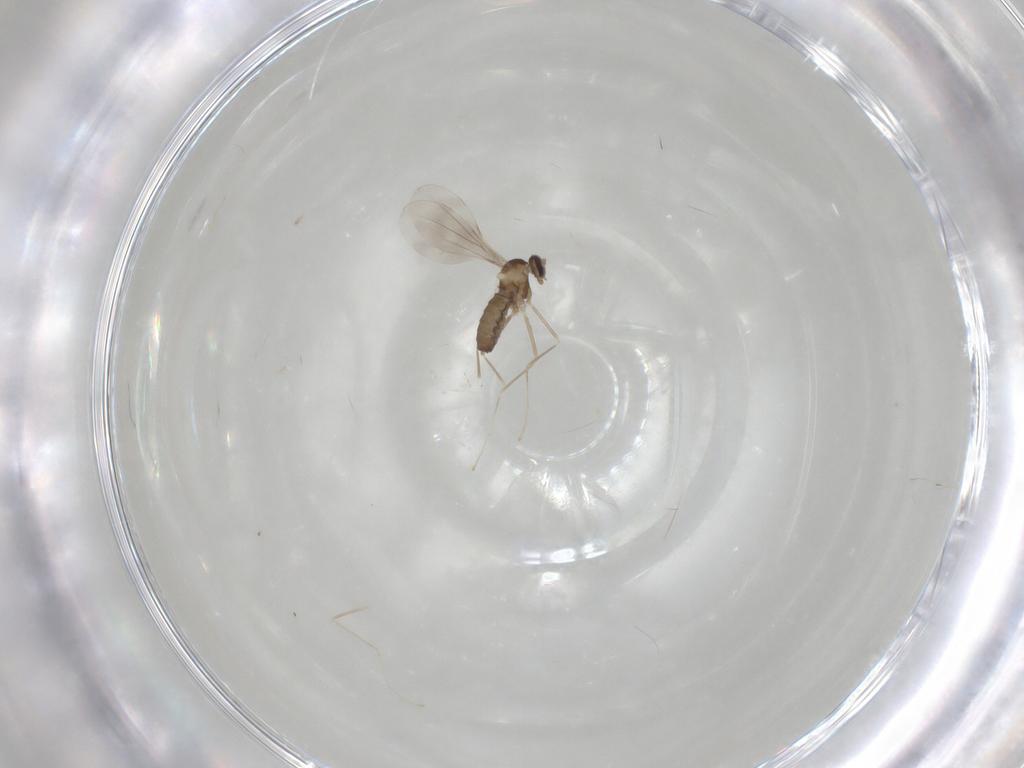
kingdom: Animalia
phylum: Arthropoda
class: Insecta
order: Diptera
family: Cecidomyiidae
